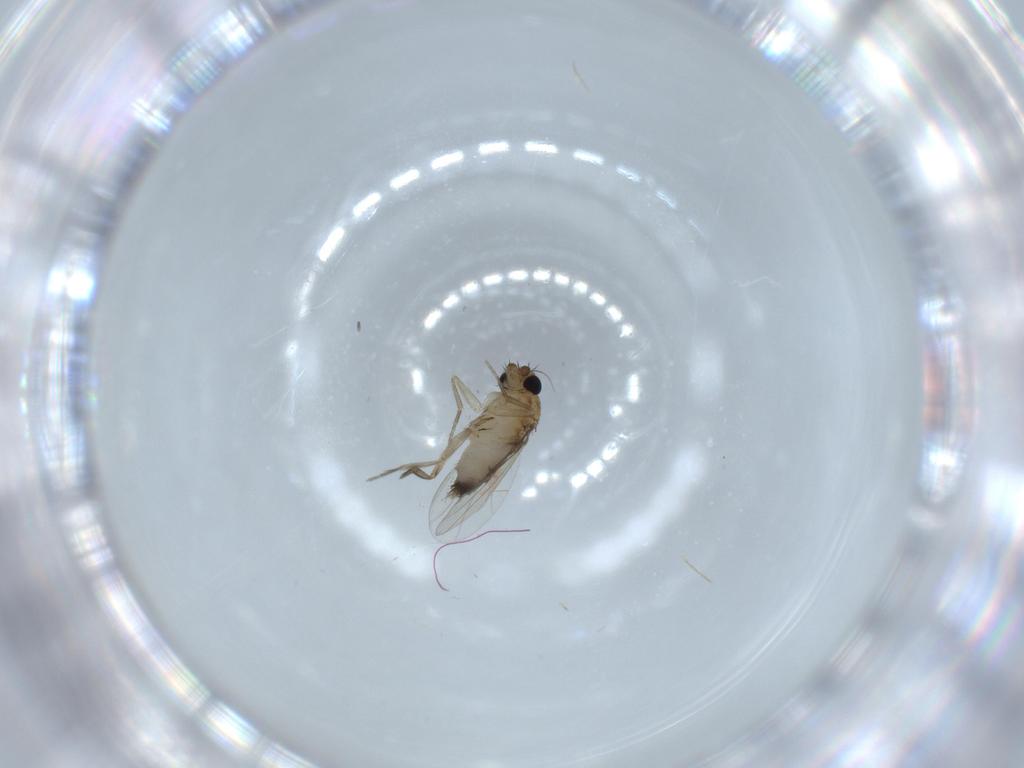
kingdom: Animalia
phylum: Arthropoda
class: Insecta
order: Diptera
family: Phoridae
